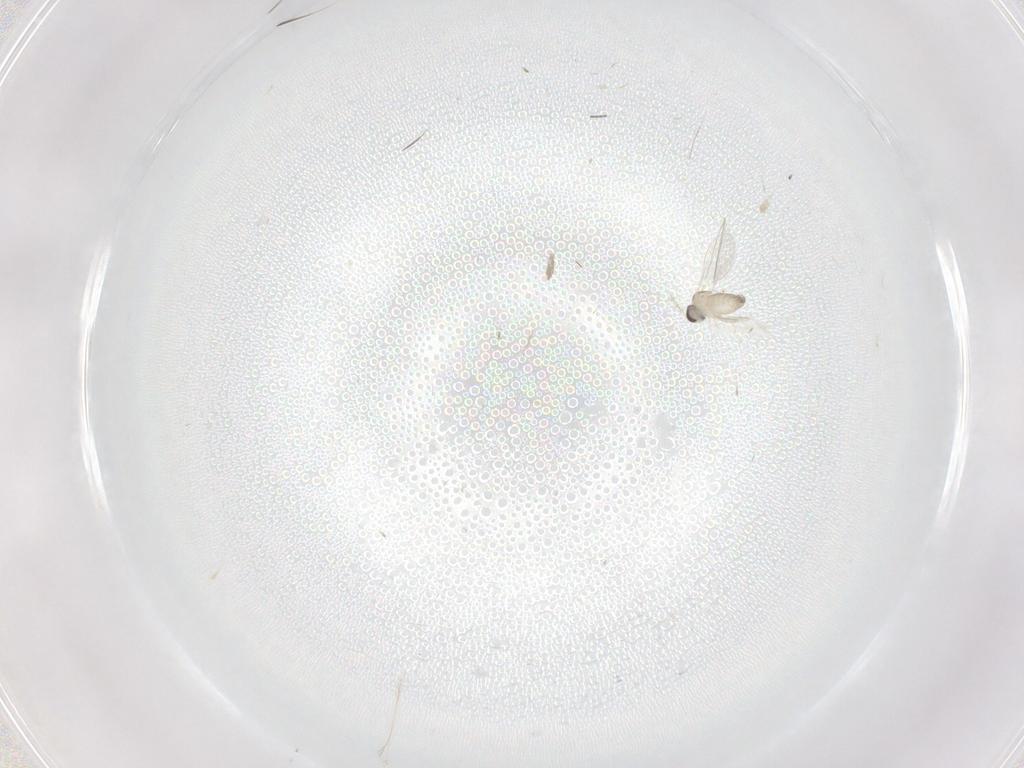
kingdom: Animalia
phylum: Arthropoda
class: Insecta
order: Diptera
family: Cecidomyiidae
